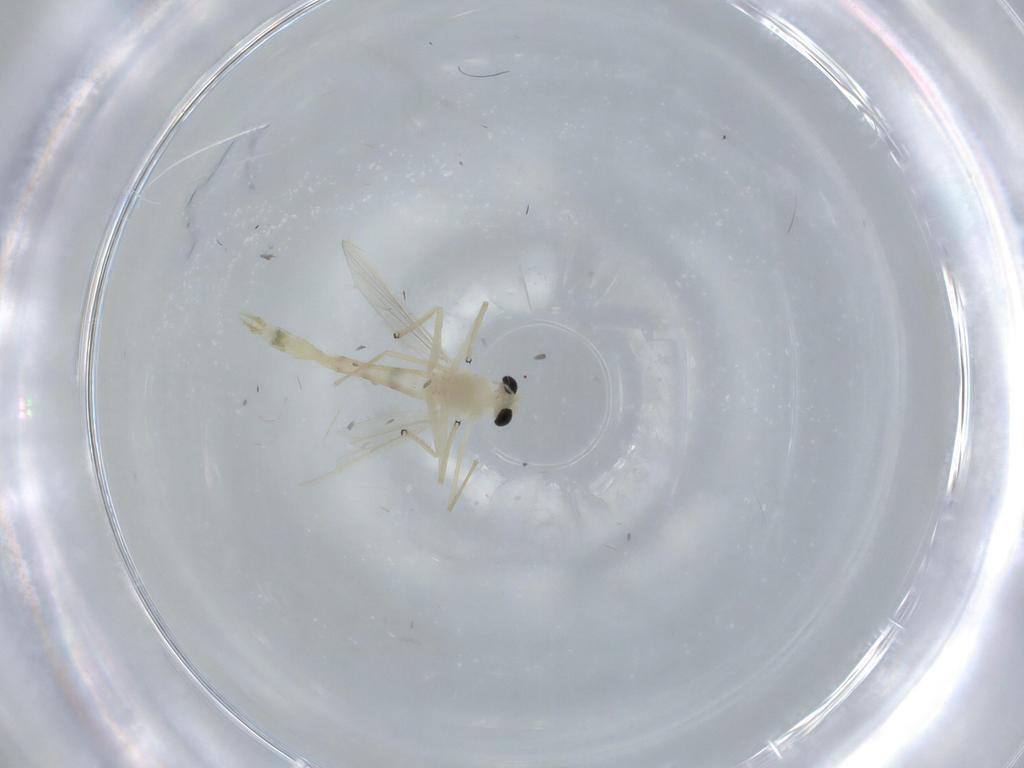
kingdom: Animalia
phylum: Arthropoda
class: Insecta
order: Diptera
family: Chironomidae
